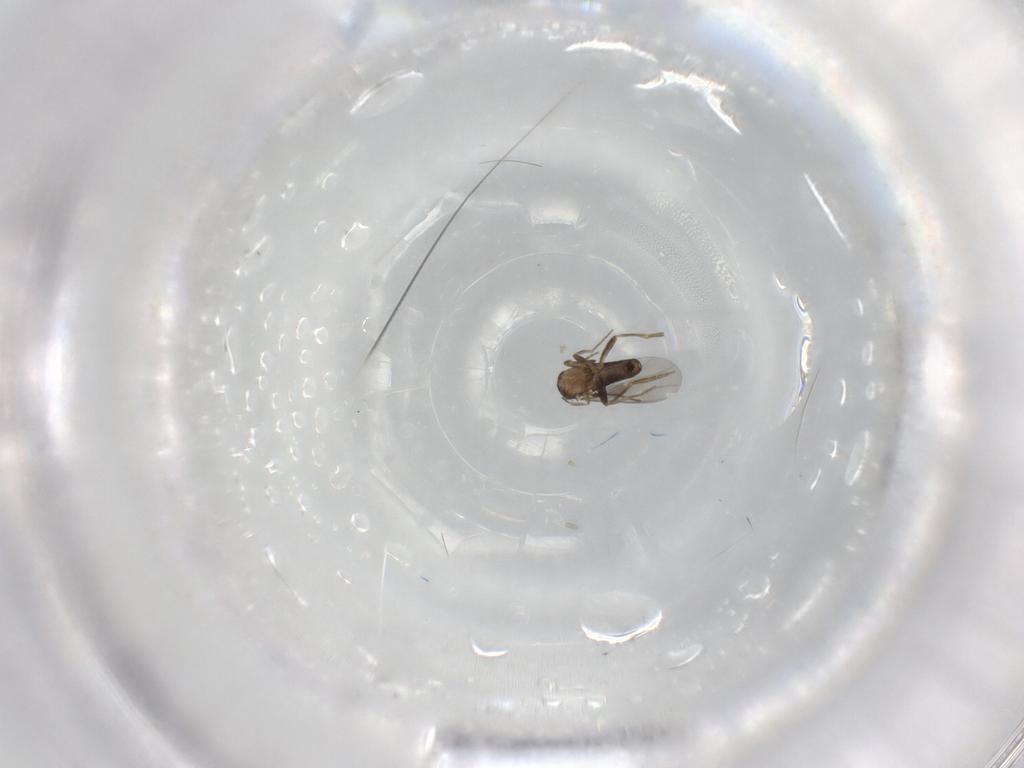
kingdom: Animalia
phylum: Arthropoda
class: Insecta
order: Diptera
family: Phoridae
